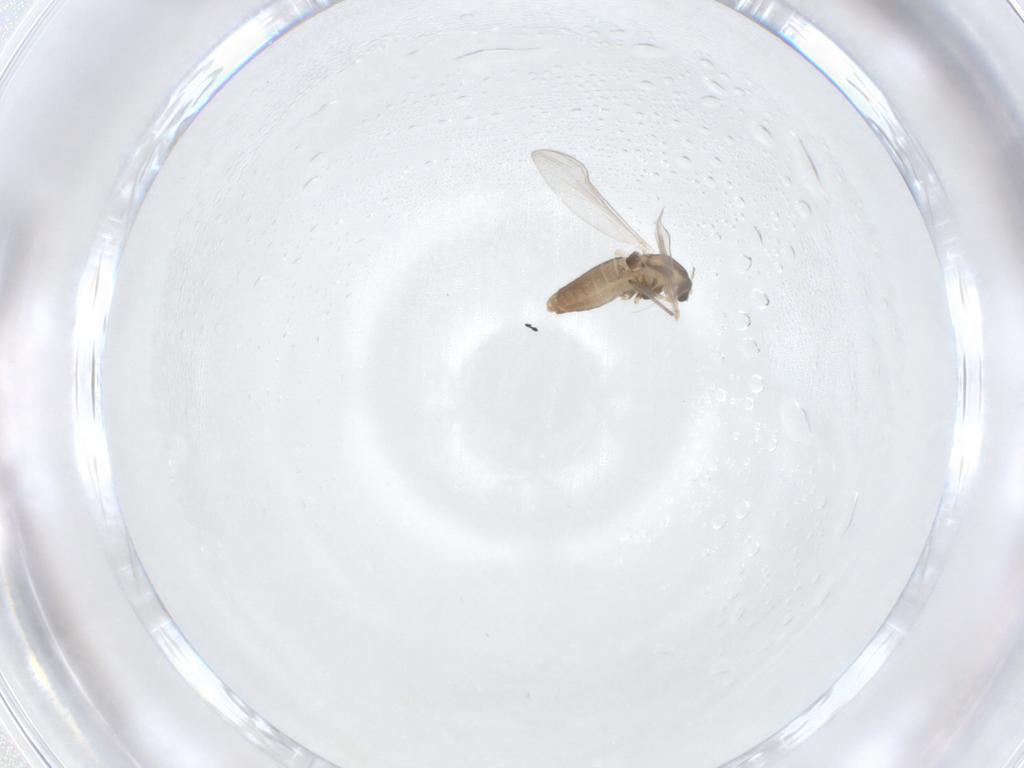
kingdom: Animalia
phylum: Arthropoda
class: Insecta
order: Diptera
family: Chironomidae
